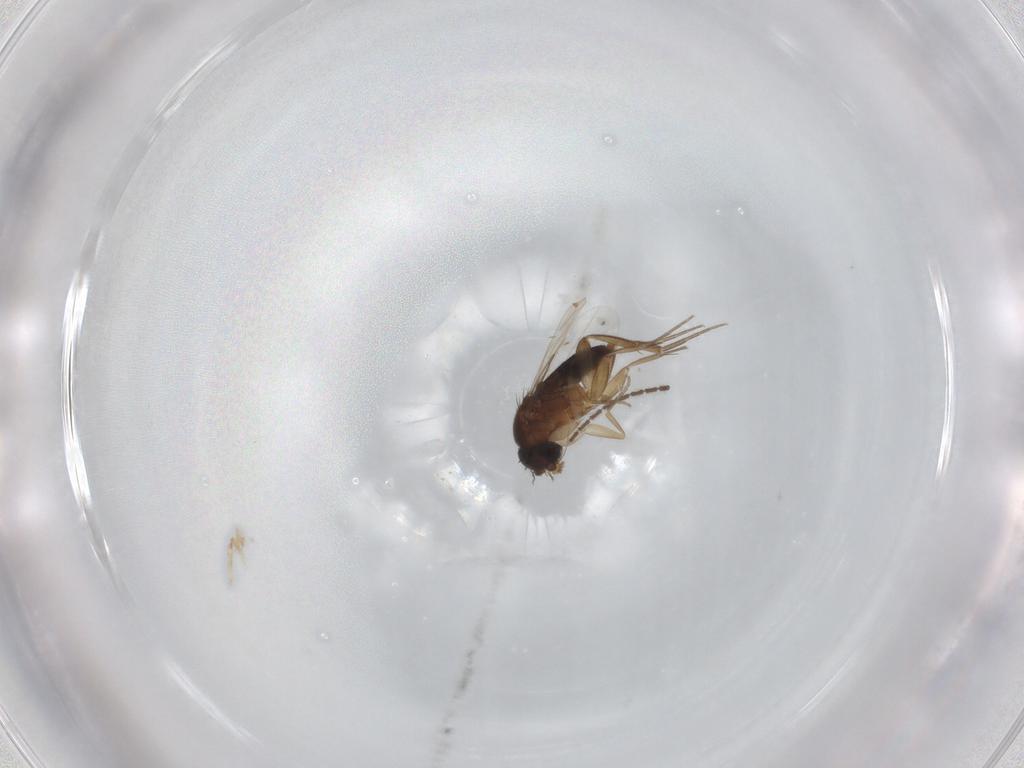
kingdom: Animalia
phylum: Arthropoda
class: Insecta
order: Diptera
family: Phoridae
